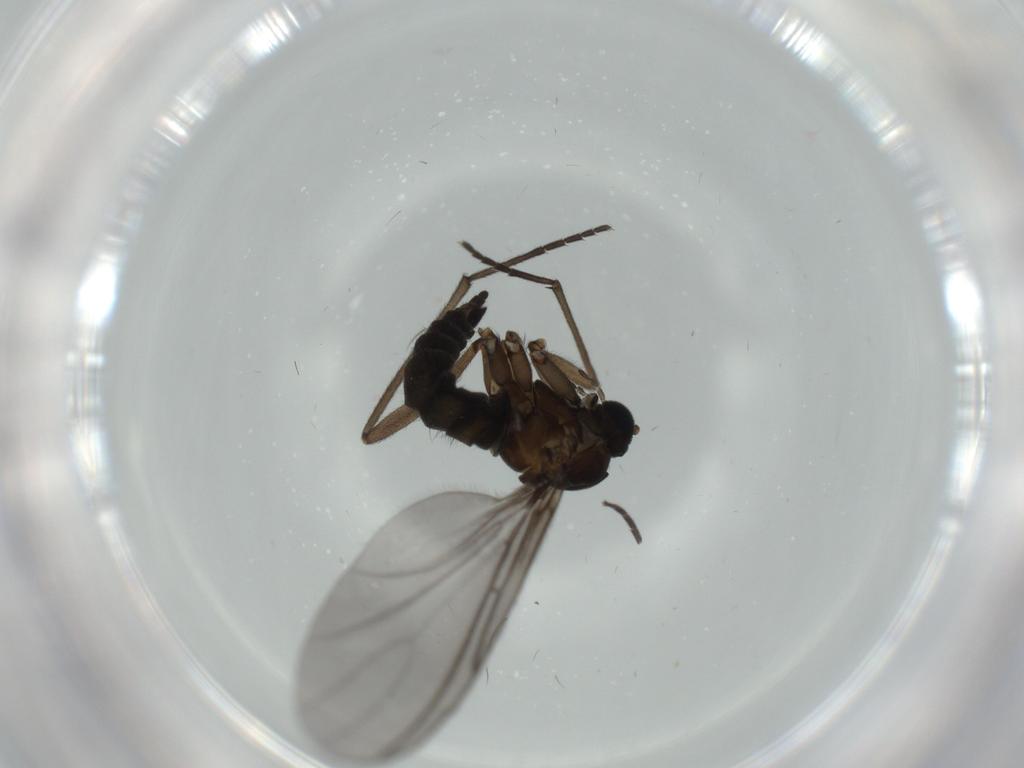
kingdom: Animalia
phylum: Arthropoda
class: Insecta
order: Diptera
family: Sciaridae
